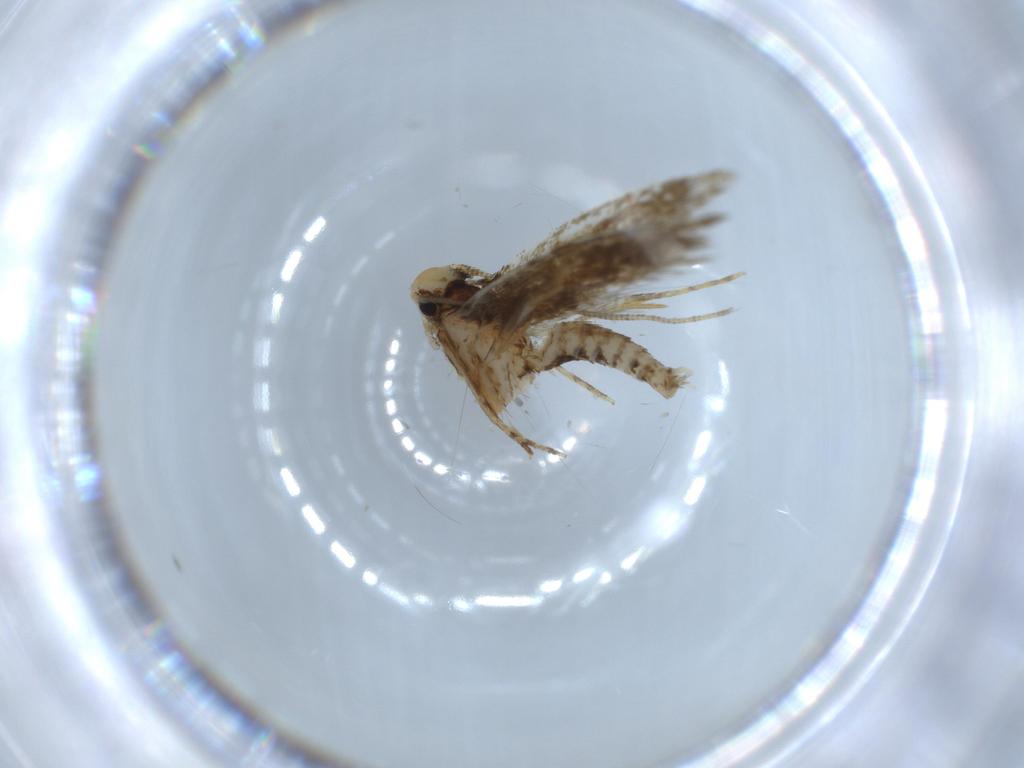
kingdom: Animalia
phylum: Arthropoda
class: Insecta
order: Lepidoptera
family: Tineidae
